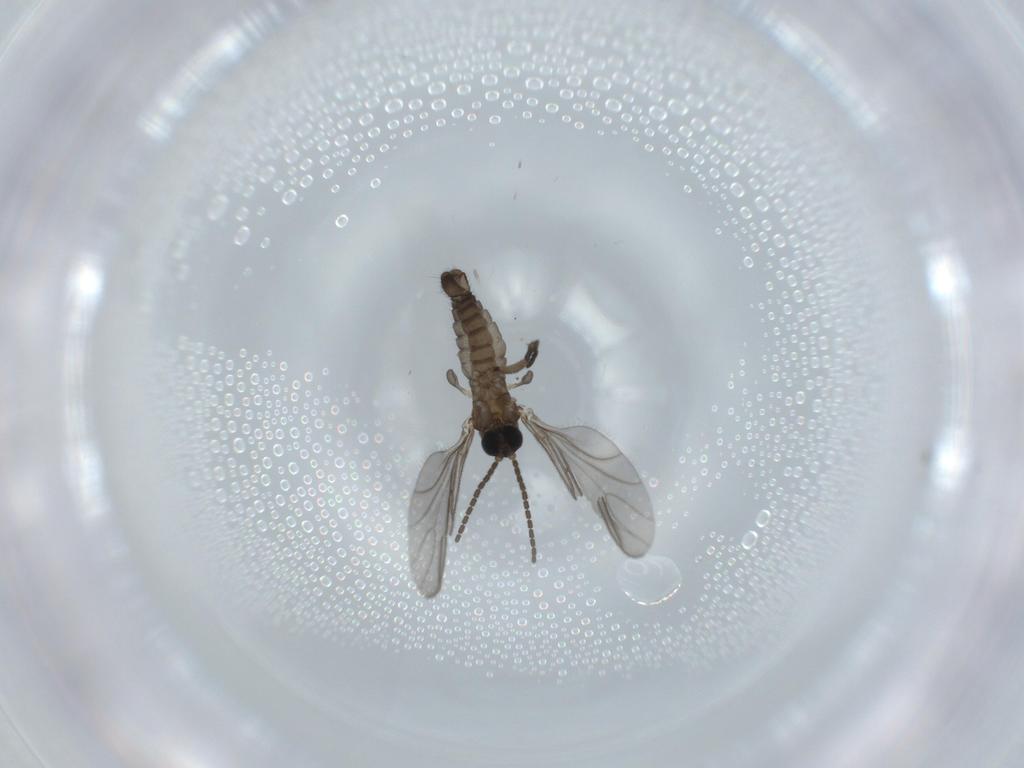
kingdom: Animalia
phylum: Arthropoda
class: Insecta
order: Diptera
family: Sciaridae
